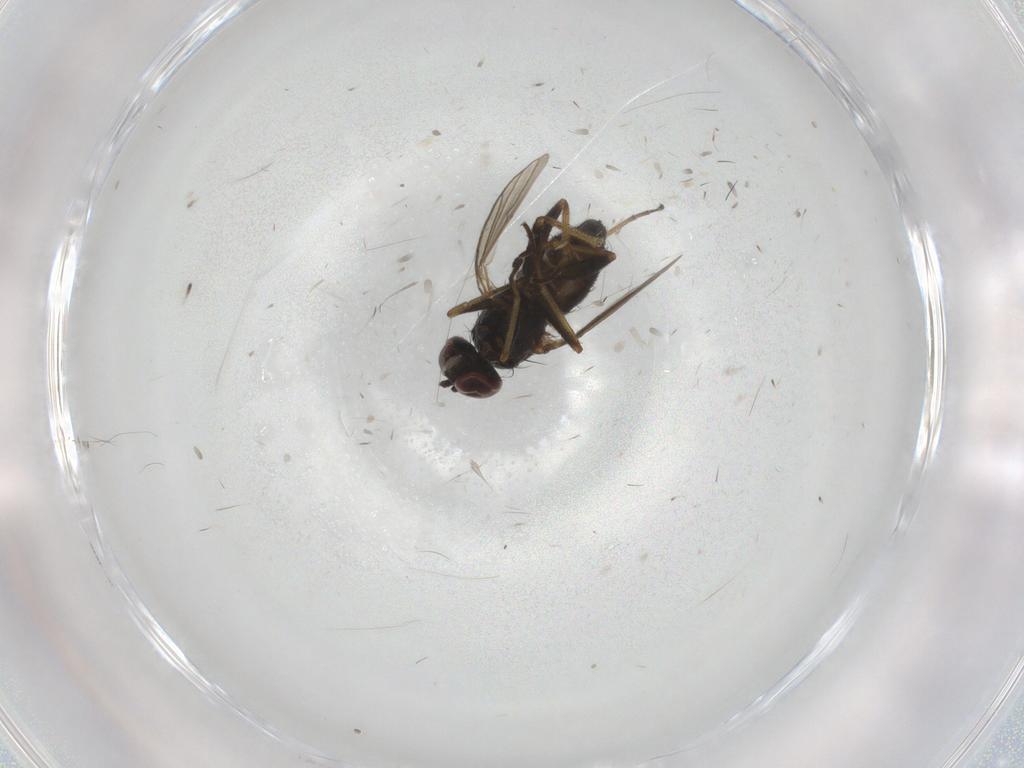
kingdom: Animalia
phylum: Arthropoda
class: Insecta
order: Diptera
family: Dolichopodidae
